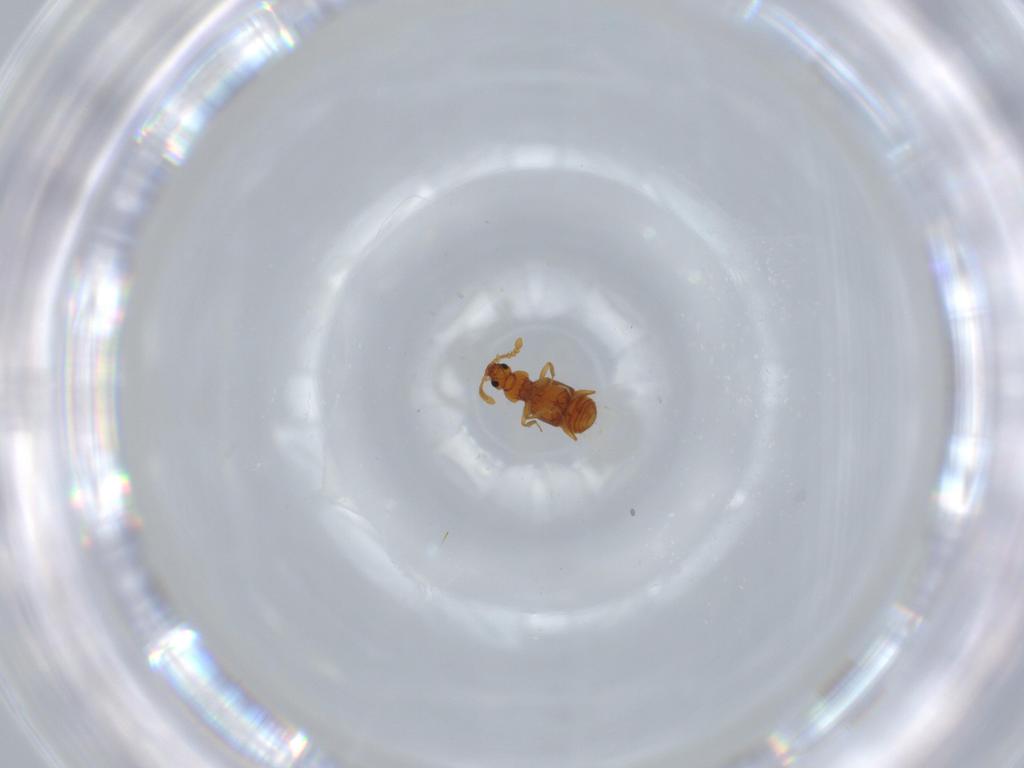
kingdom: Animalia
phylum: Arthropoda
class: Insecta
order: Coleoptera
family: Staphylinidae
